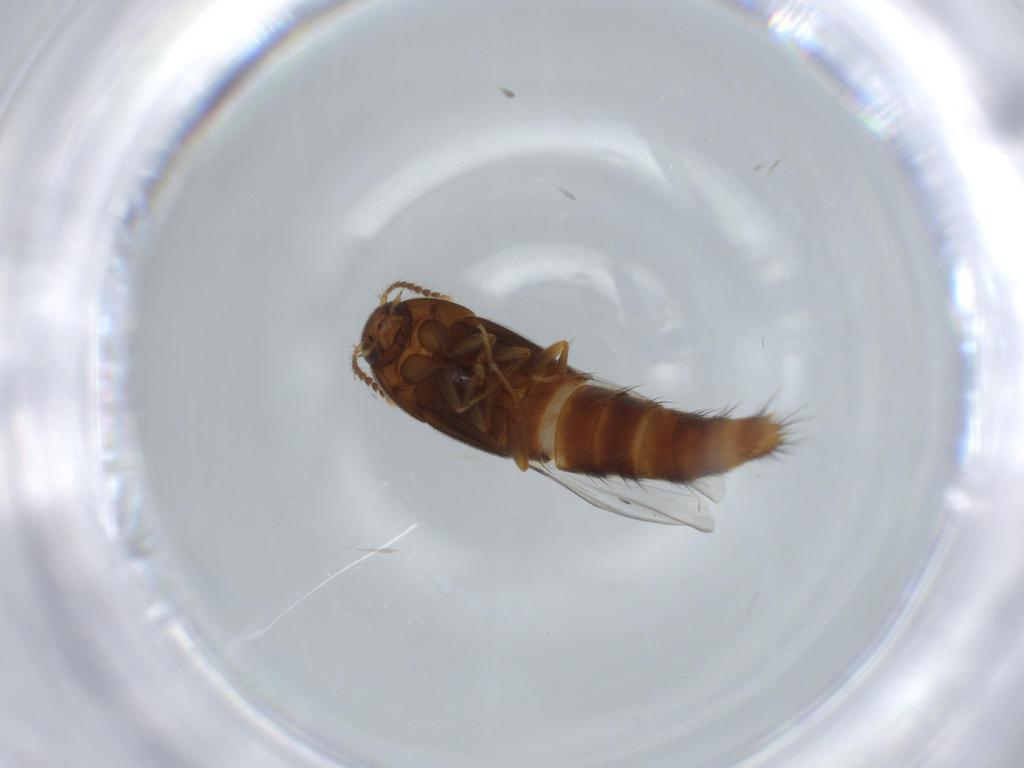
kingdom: Animalia
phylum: Arthropoda
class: Insecta
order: Coleoptera
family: Staphylinidae
